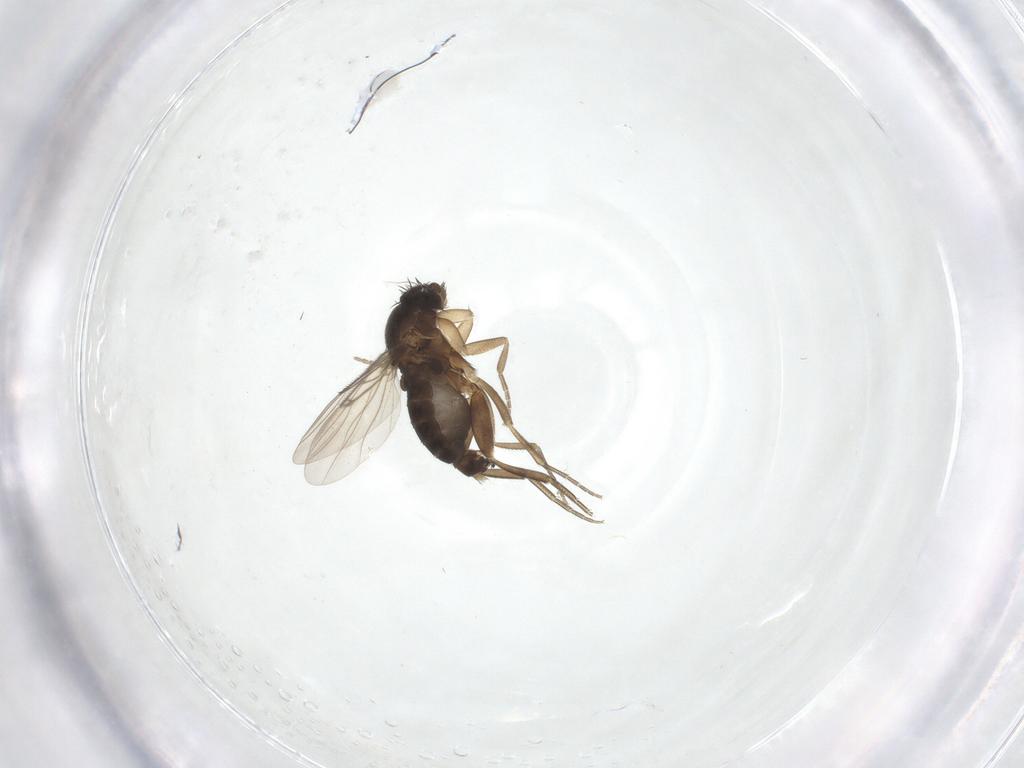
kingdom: Animalia
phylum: Arthropoda
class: Insecta
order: Diptera
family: Phoridae
